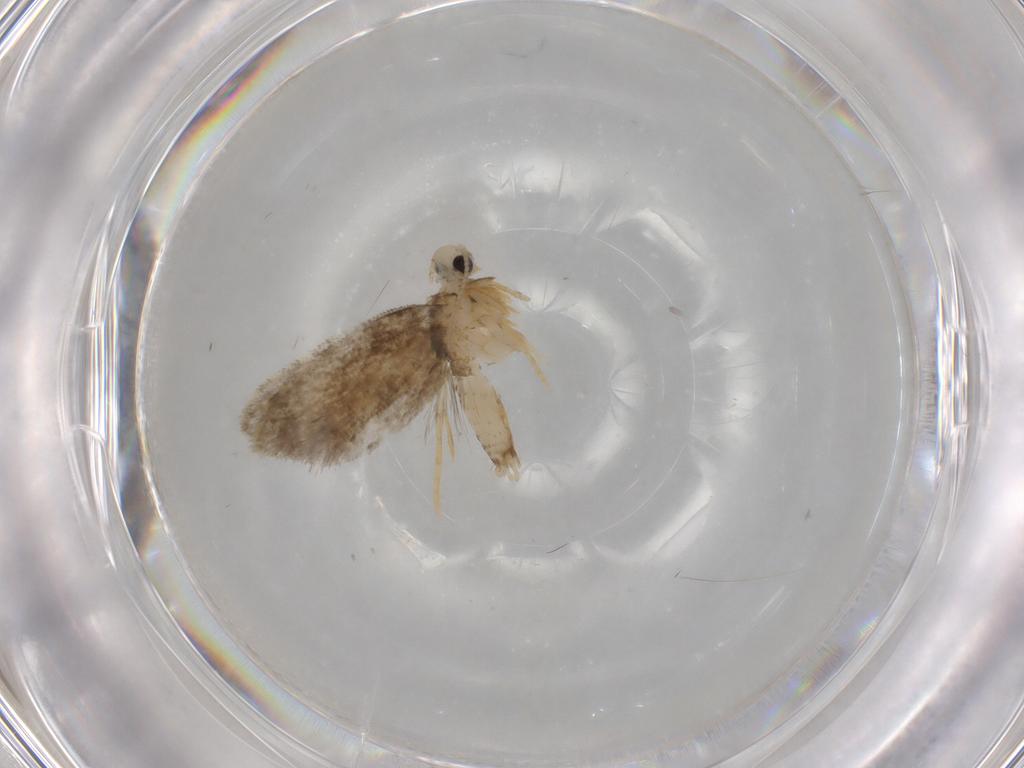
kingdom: Animalia
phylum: Arthropoda
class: Insecta
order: Lepidoptera
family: Psychidae
